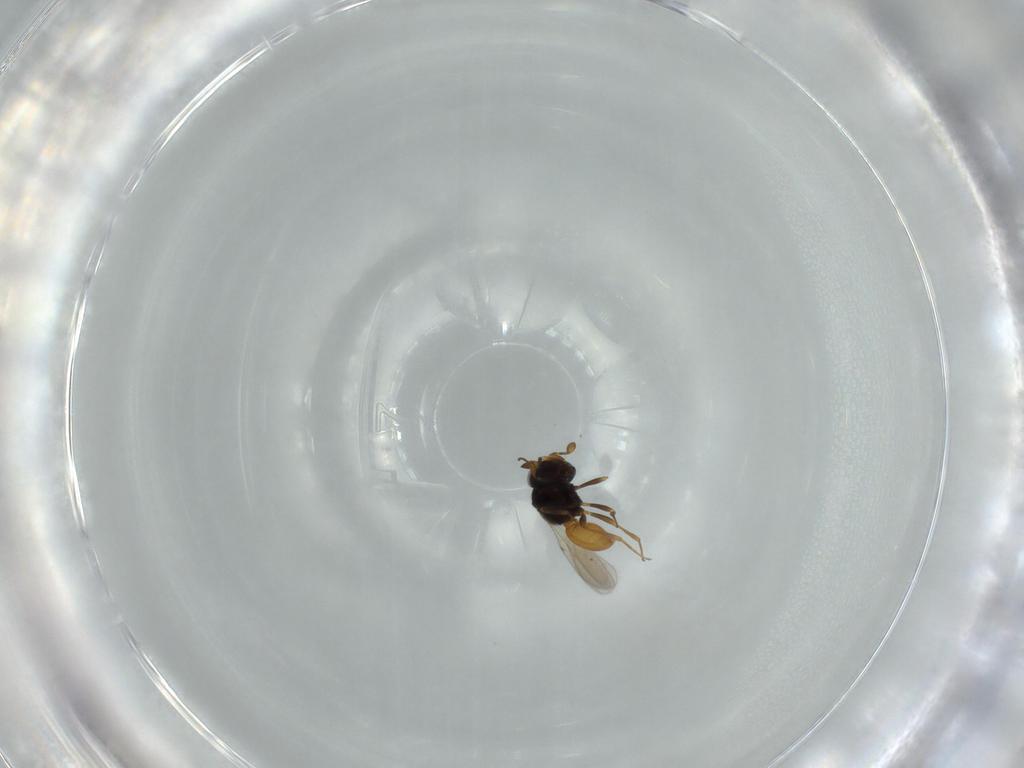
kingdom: Animalia
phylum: Arthropoda
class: Insecta
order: Hymenoptera
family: Scelionidae
